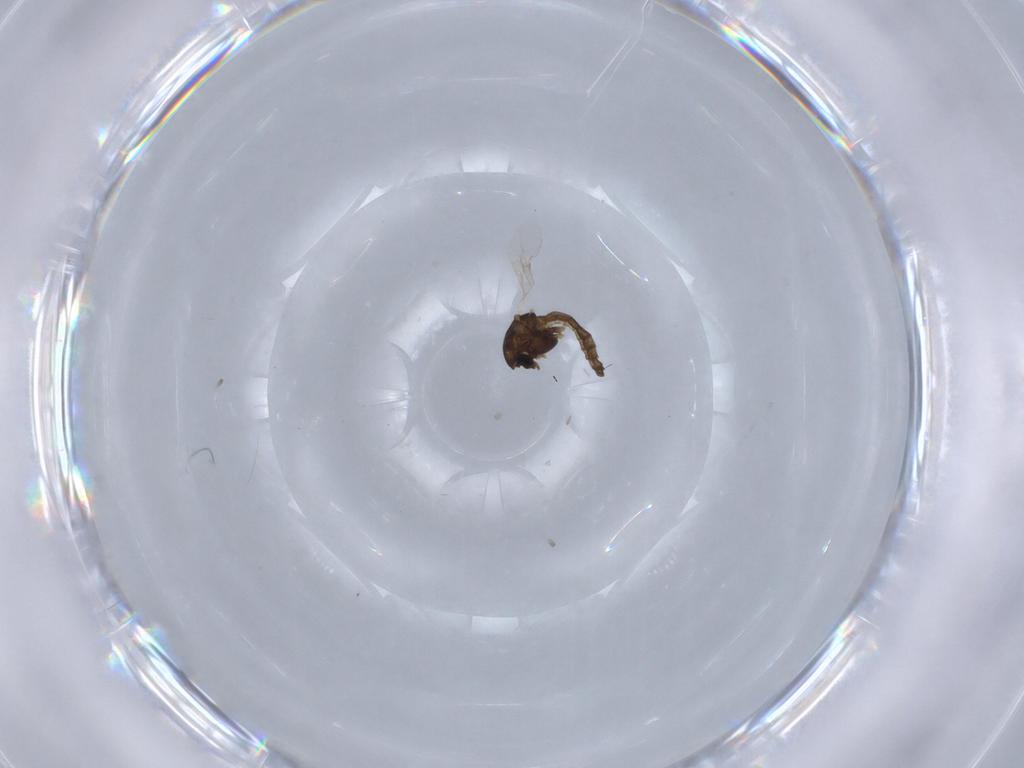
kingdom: Animalia
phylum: Arthropoda
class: Insecta
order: Diptera
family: Chironomidae
